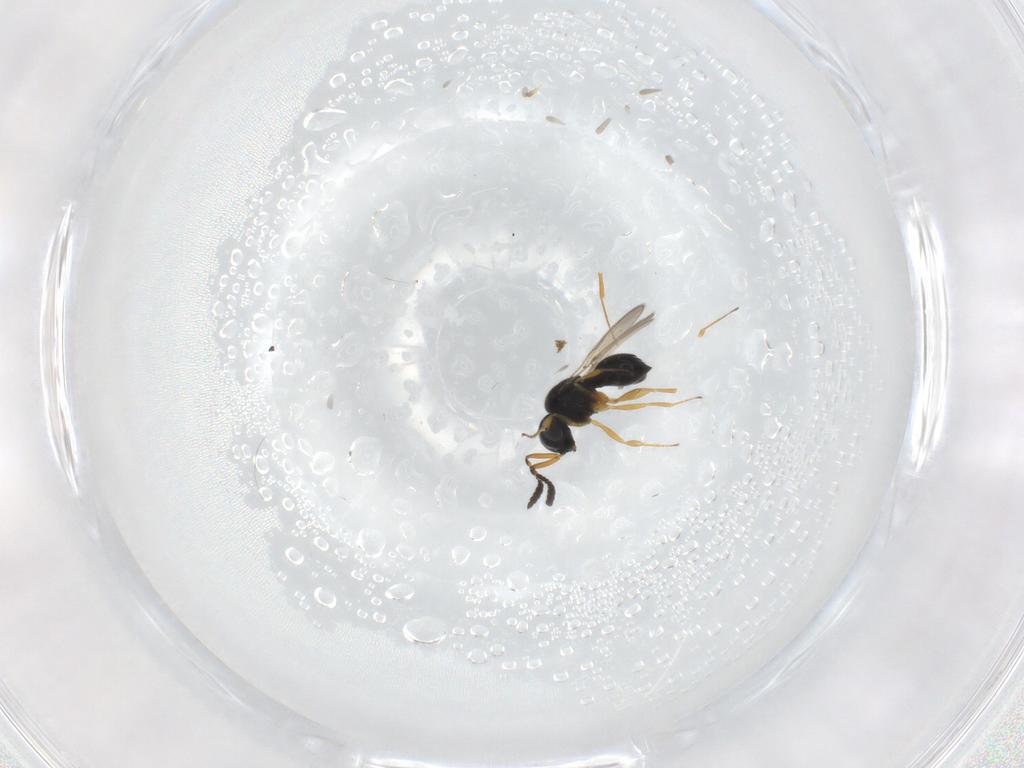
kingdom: Animalia
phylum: Arthropoda
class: Insecta
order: Hymenoptera
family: Scelionidae
